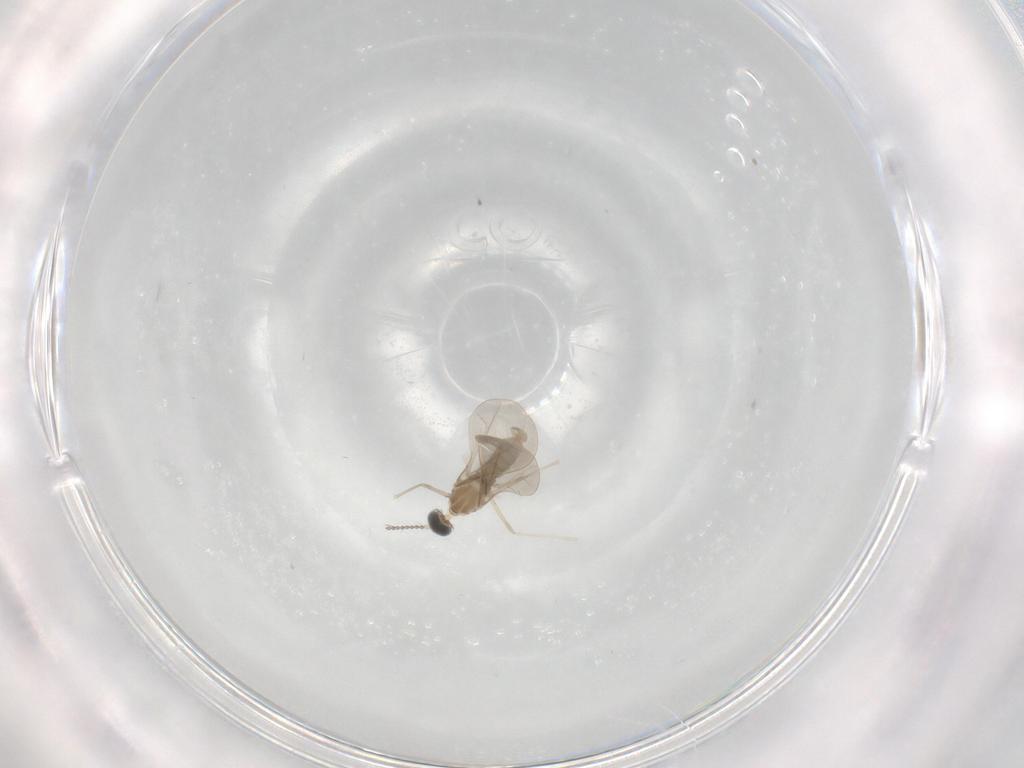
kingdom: Animalia
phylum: Arthropoda
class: Insecta
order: Diptera
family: Cecidomyiidae
